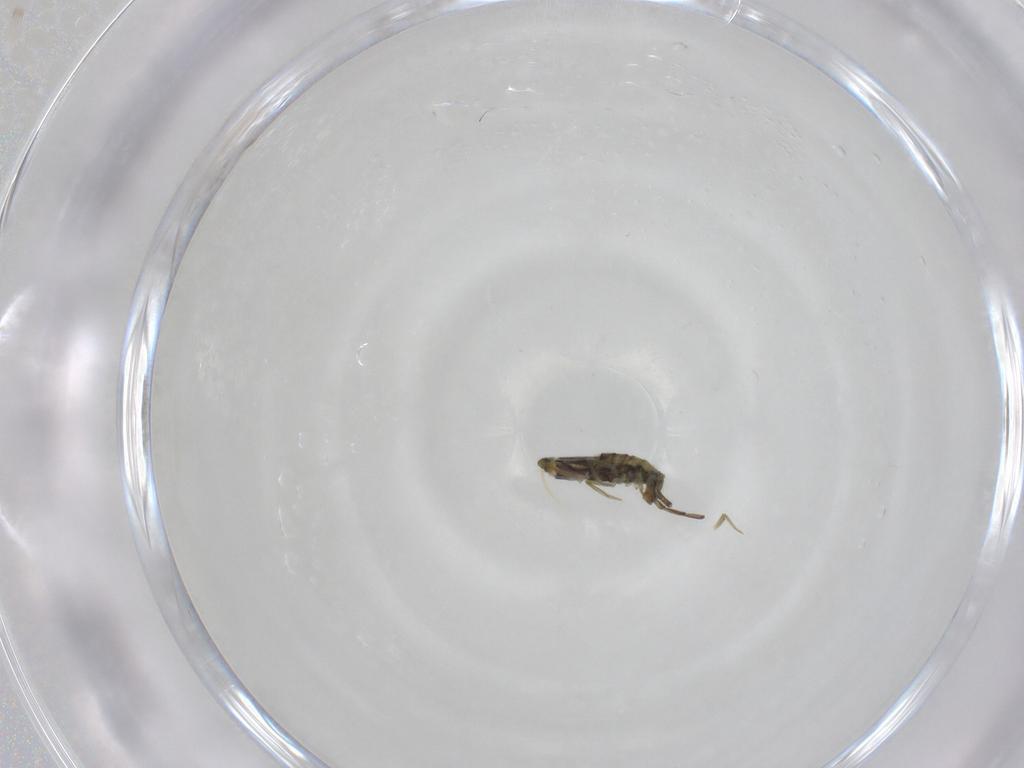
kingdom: Animalia
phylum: Arthropoda
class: Collembola
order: Entomobryomorpha
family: Entomobryidae
